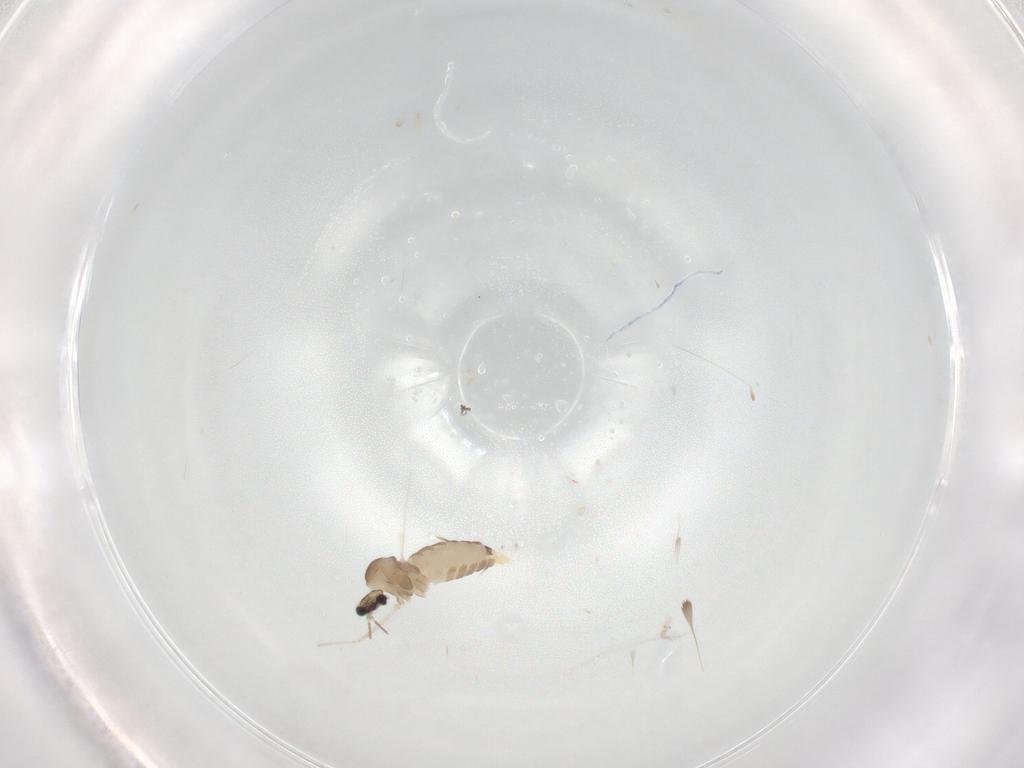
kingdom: Animalia
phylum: Arthropoda
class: Insecta
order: Diptera
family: Cecidomyiidae
